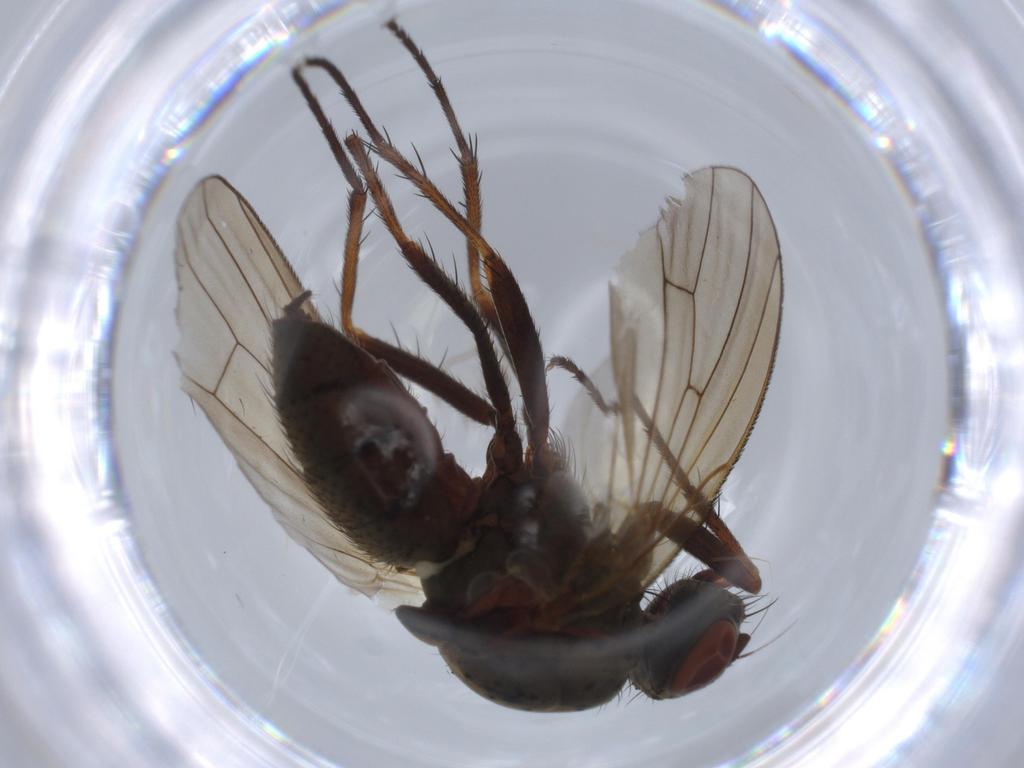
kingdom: Animalia
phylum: Arthropoda
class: Insecta
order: Diptera
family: Anthomyiidae
